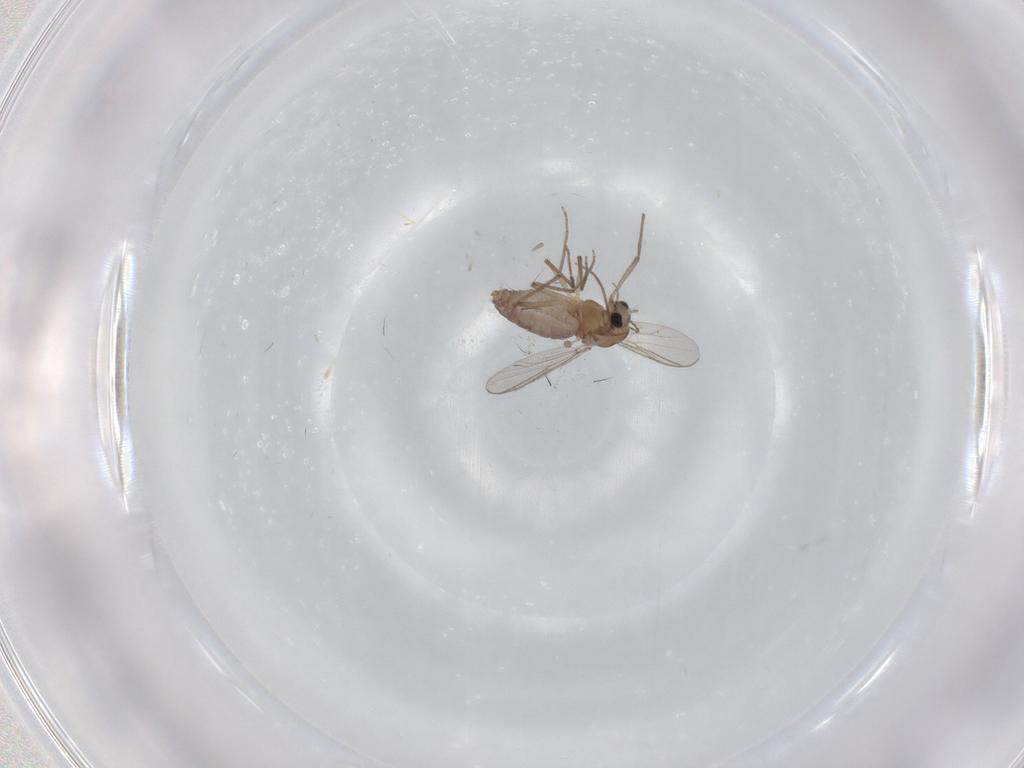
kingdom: Animalia
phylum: Arthropoda
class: Insecta
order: Diptera
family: Chironomidae
